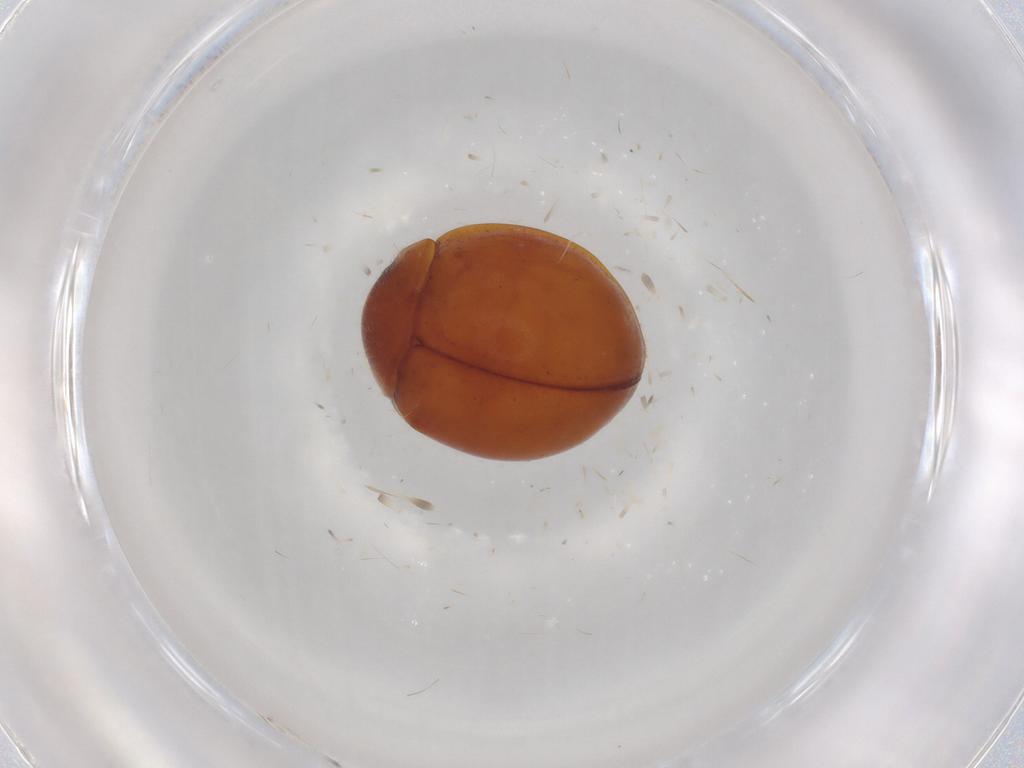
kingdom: Animalia
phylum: Arthropoda
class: Insecta
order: Coleoptera
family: Coccinellidae
